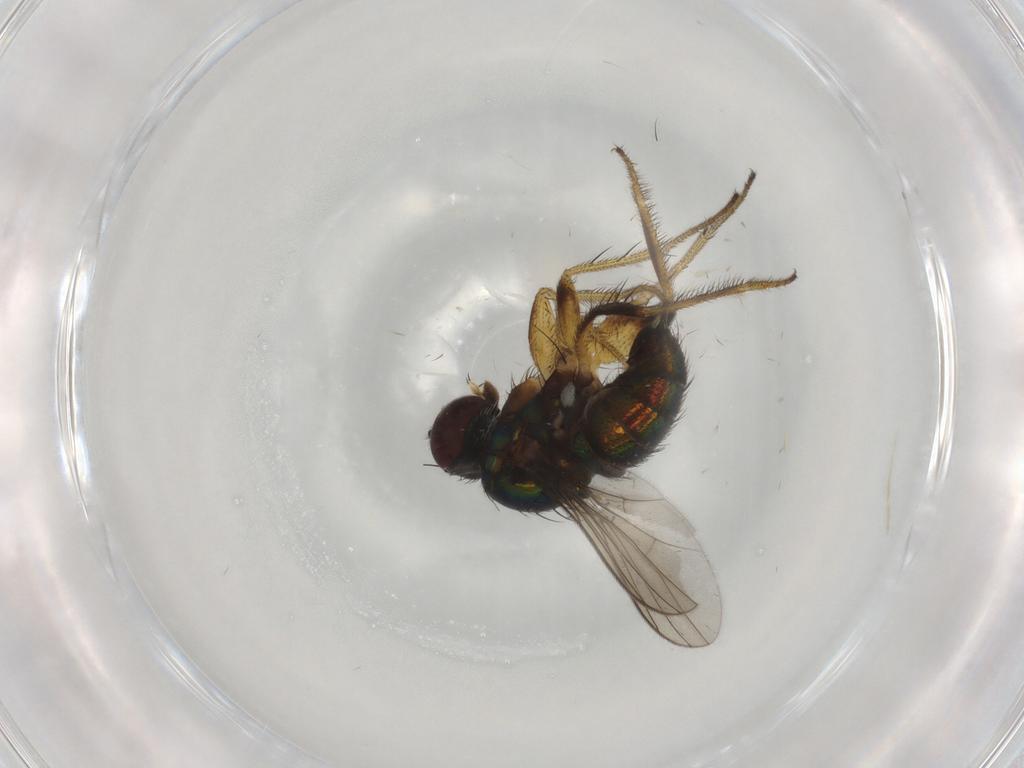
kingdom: Animalia
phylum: Arthropoda
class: Insecta
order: Diptera
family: Dolichopodidae
